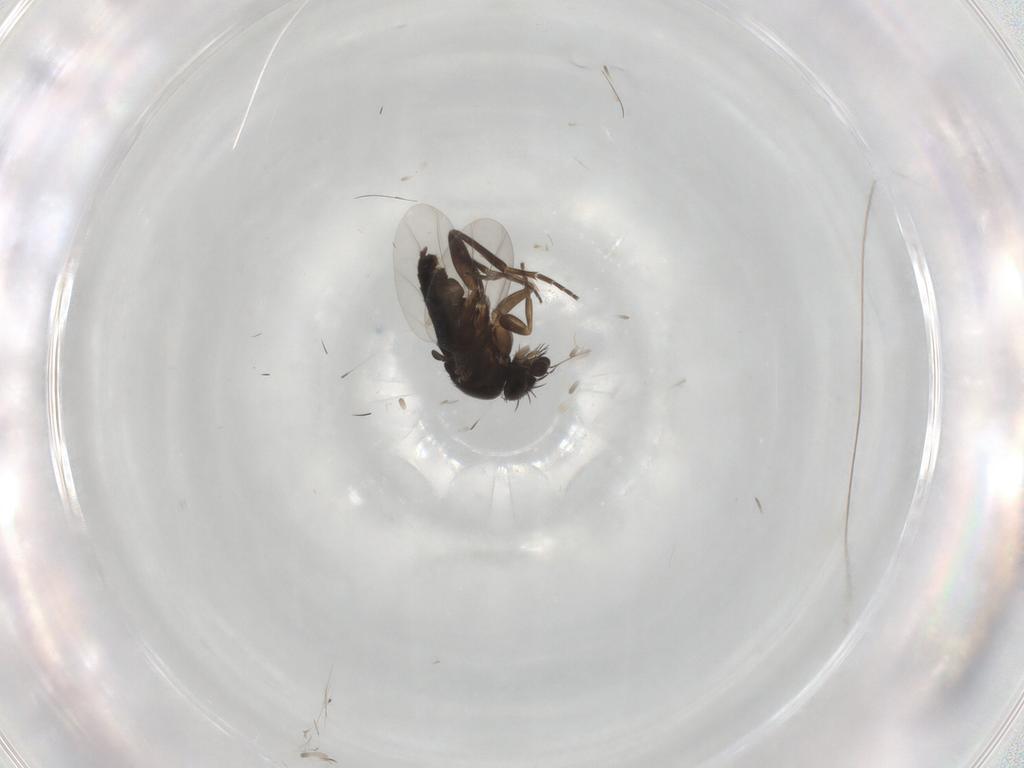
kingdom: Animalia
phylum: Arthropoda
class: Insecta
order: Diptera
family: Phoridae
